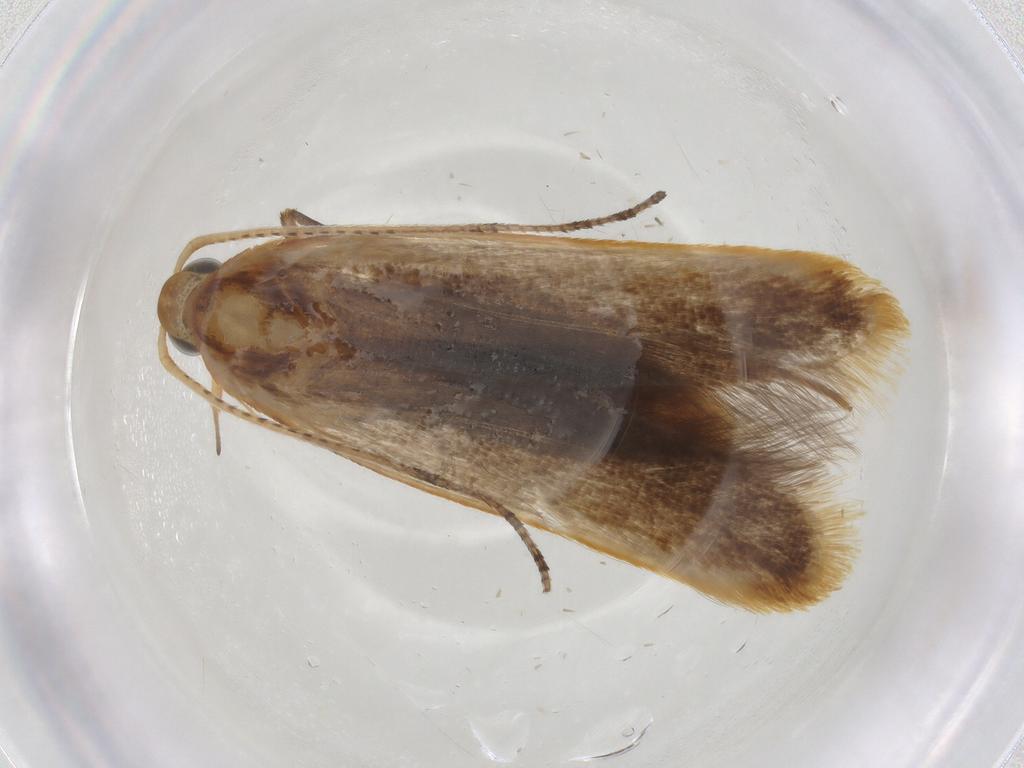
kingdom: Animalia
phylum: Arthropoda
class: Insecta
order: Lepidoptera
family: Elachistidae
